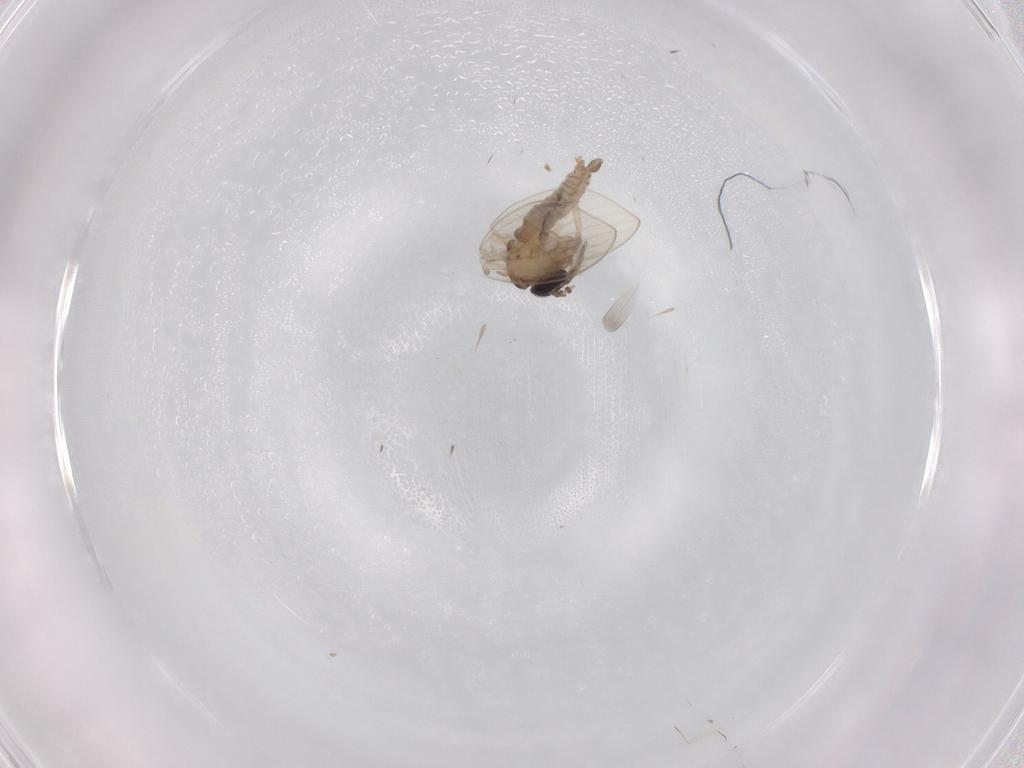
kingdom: Animalia
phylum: Arthropoda
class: Insecta
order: Diptera
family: Psychodidae
